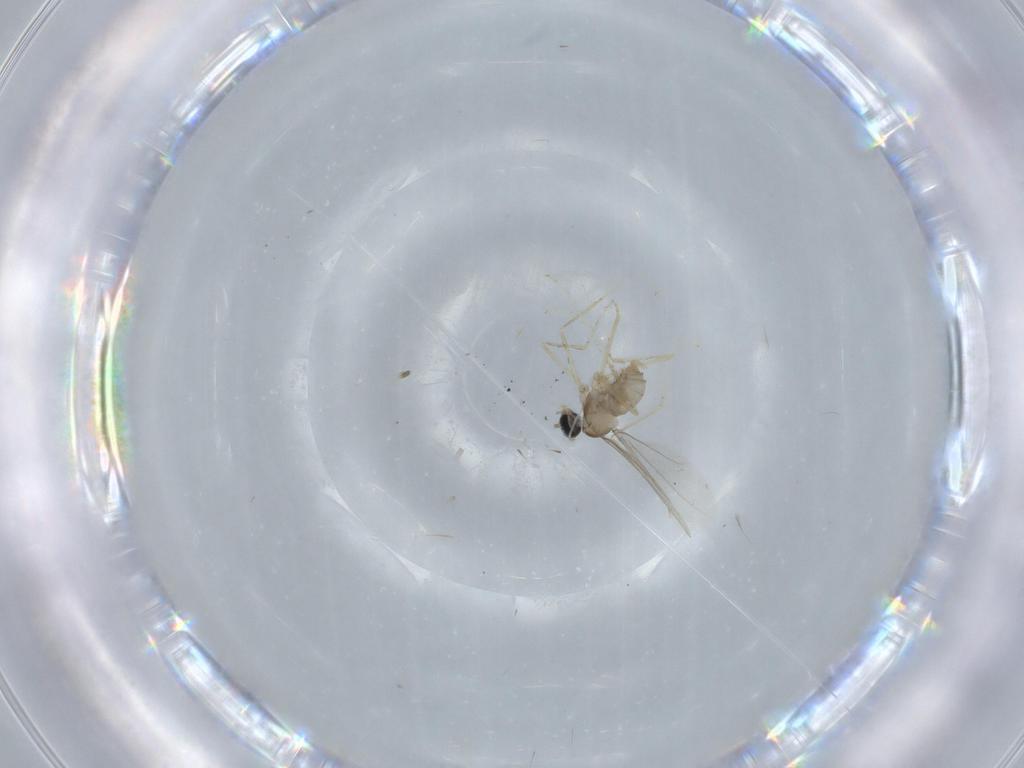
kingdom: Animalia
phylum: Arthropoda
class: Insecta
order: Diptera
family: Cecidomyiidae
